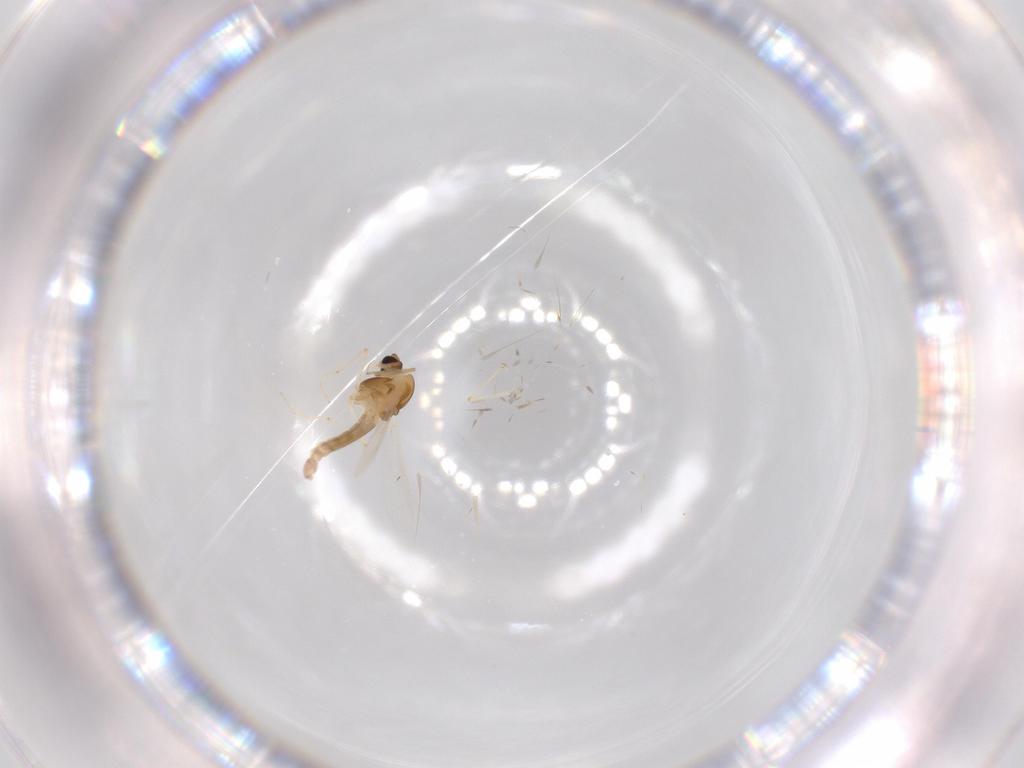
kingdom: Animalia
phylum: Arthropoda
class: Insecta
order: Diptera
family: Chironomidae
